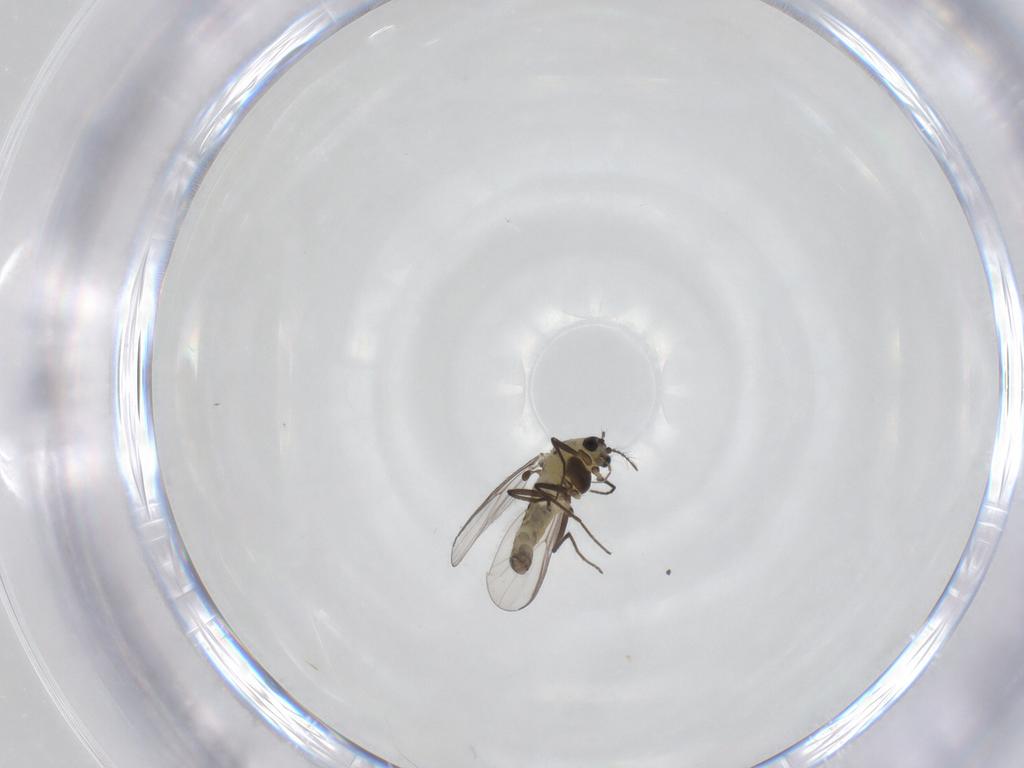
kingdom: Animalia
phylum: Arthropoda
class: Insecta
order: Diptera
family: Chironomidae
